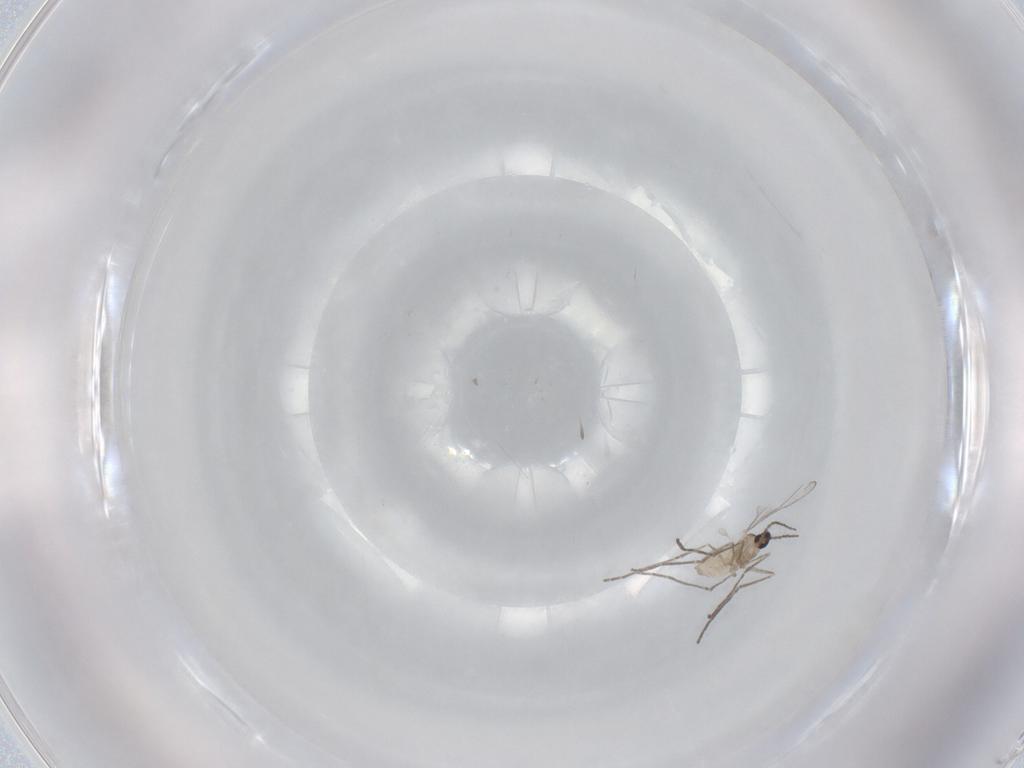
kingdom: Animalia
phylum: Arthropoda
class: Insecta
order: Diptera
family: Cecidomyiidae
